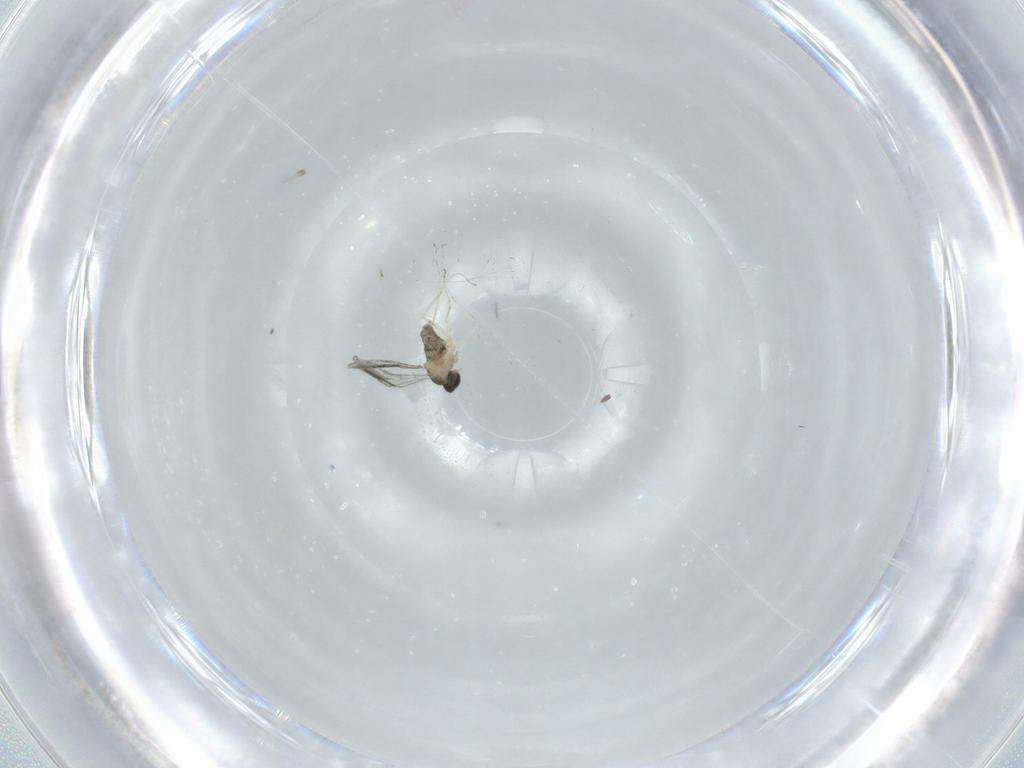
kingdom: Animalia
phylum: Arthropoda
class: Insecta
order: Diptera
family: Cecidomyiidae
